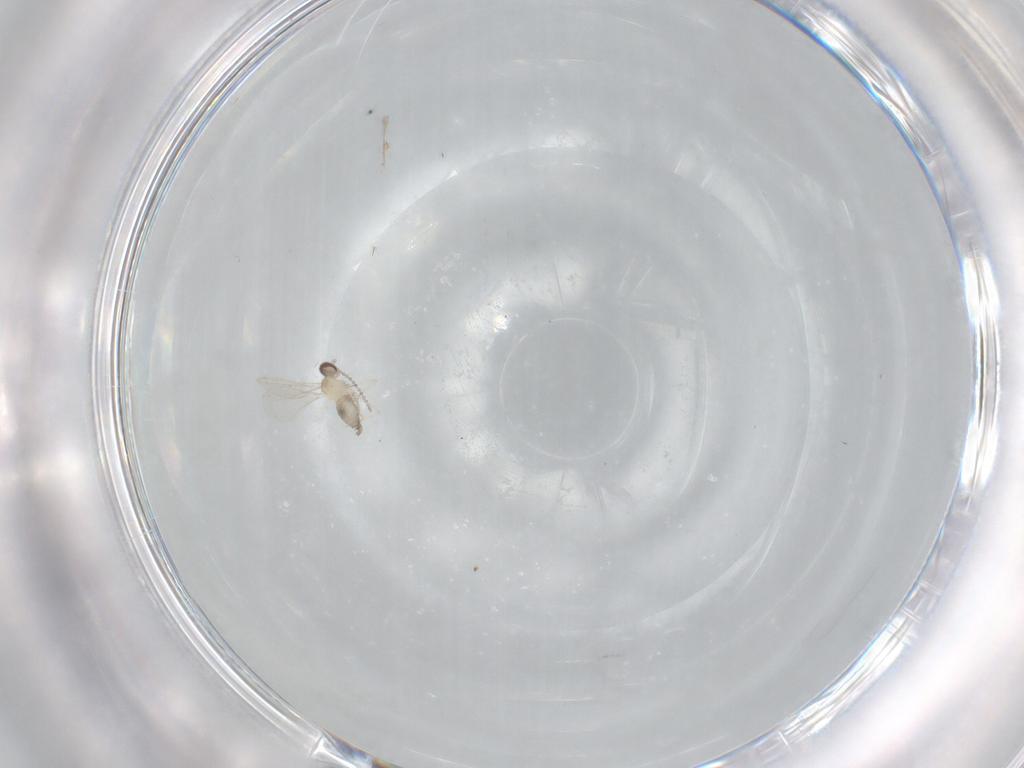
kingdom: Animalia
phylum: Arthropoda
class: Insecta
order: Diptera
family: Cecidomyiidae
